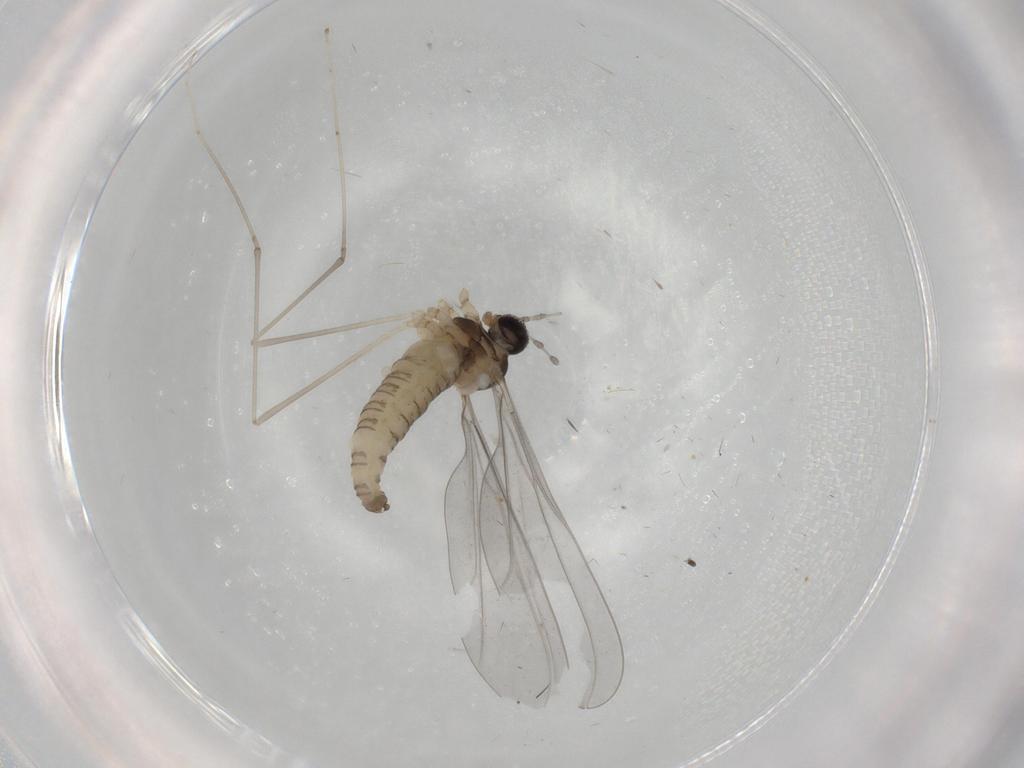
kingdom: Animalia
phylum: Arthropoda
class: Insecta
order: Diptera
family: Cecidomyiidae
